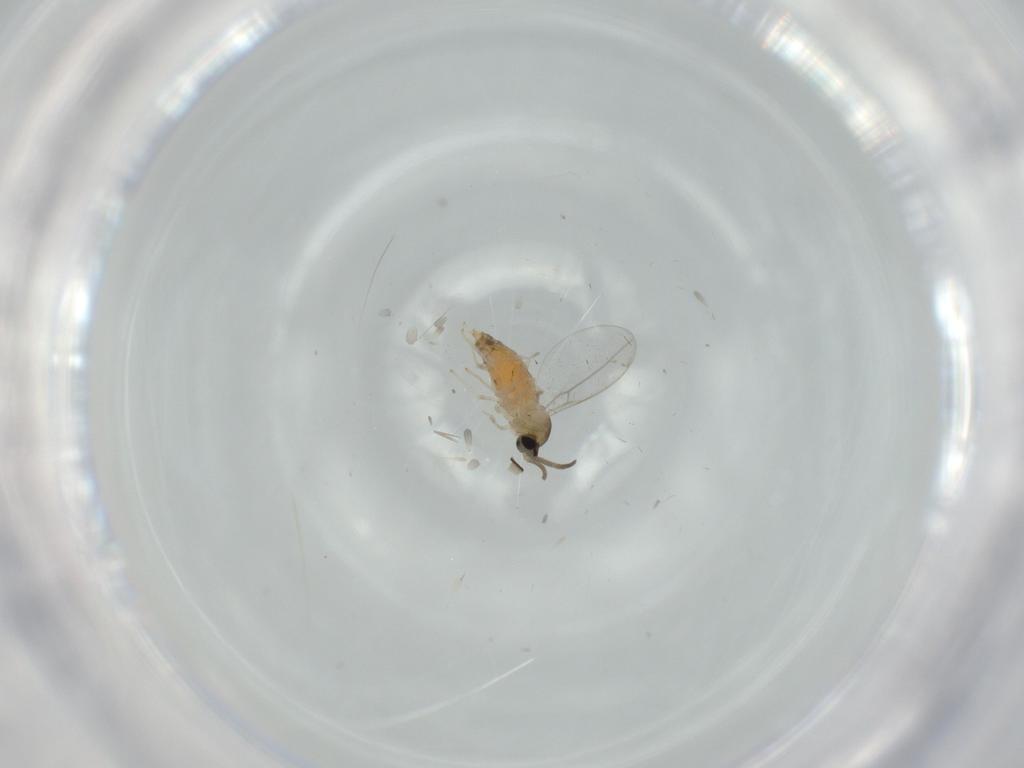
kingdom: Animalia
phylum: Arthropoda
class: Insecta
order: Diptera
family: Cecidomyiidae
